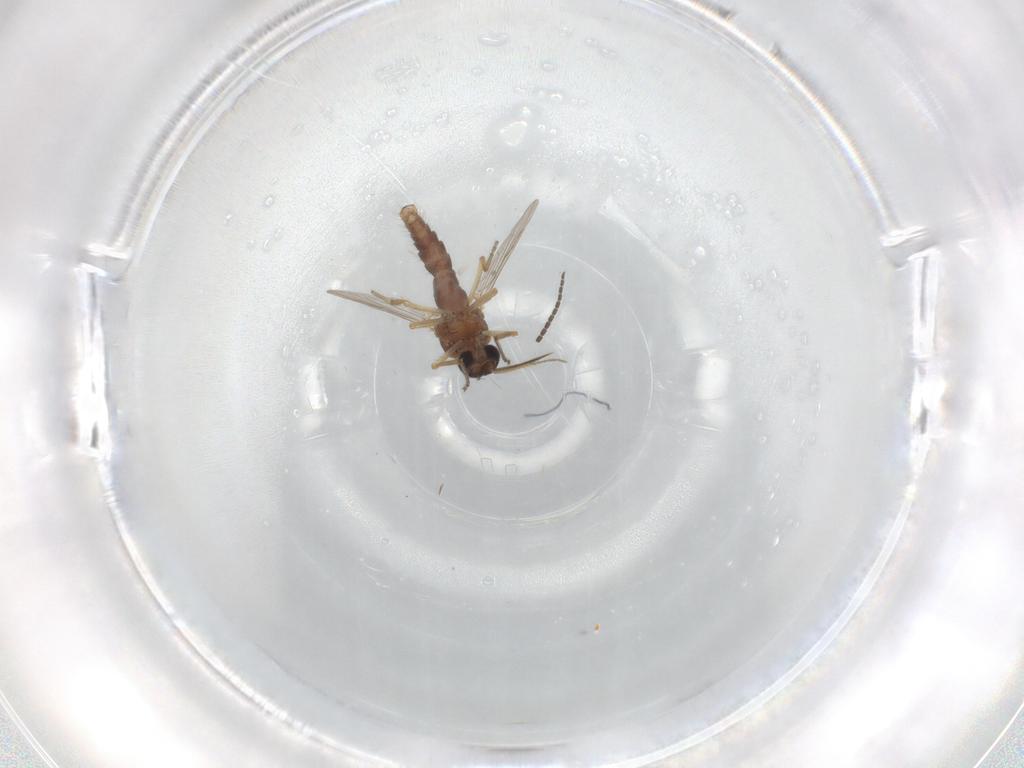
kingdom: Animalia
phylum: Arthropoda
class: Insecta
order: Diptera
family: Ceratopogonidae
